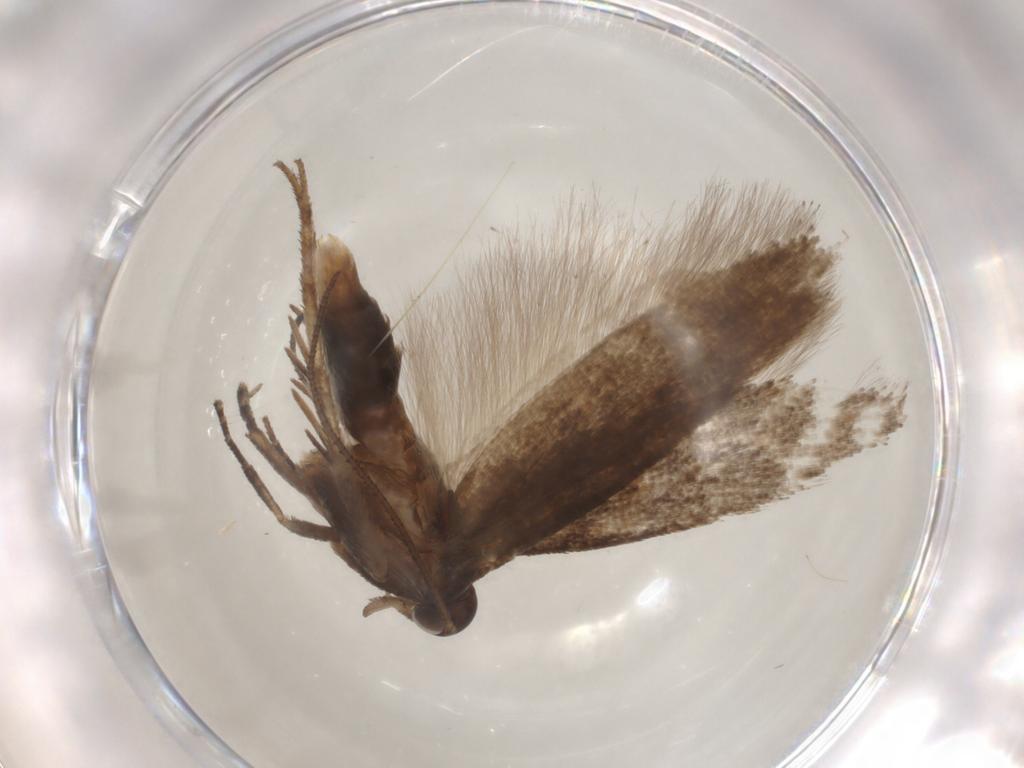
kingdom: Animalia
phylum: Arthropoda
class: Insecta
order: Lepidoptera
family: Gelechiidae
